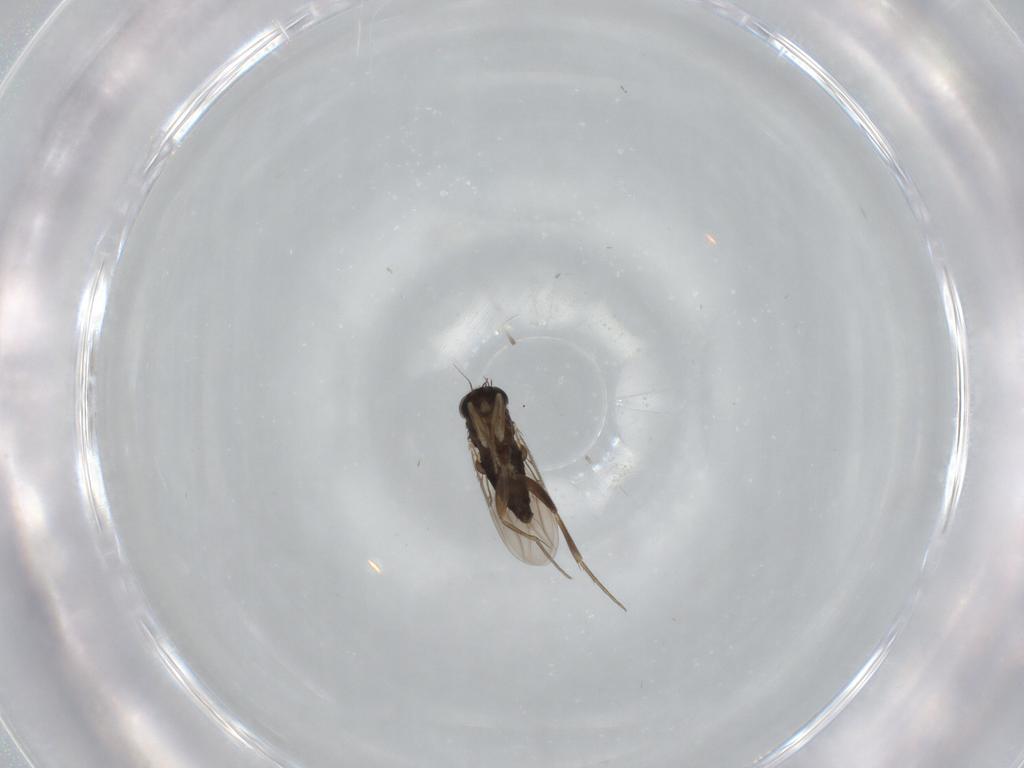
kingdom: Animalia
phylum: Arthropoda
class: Insecta
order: Diptera
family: Phoridae
